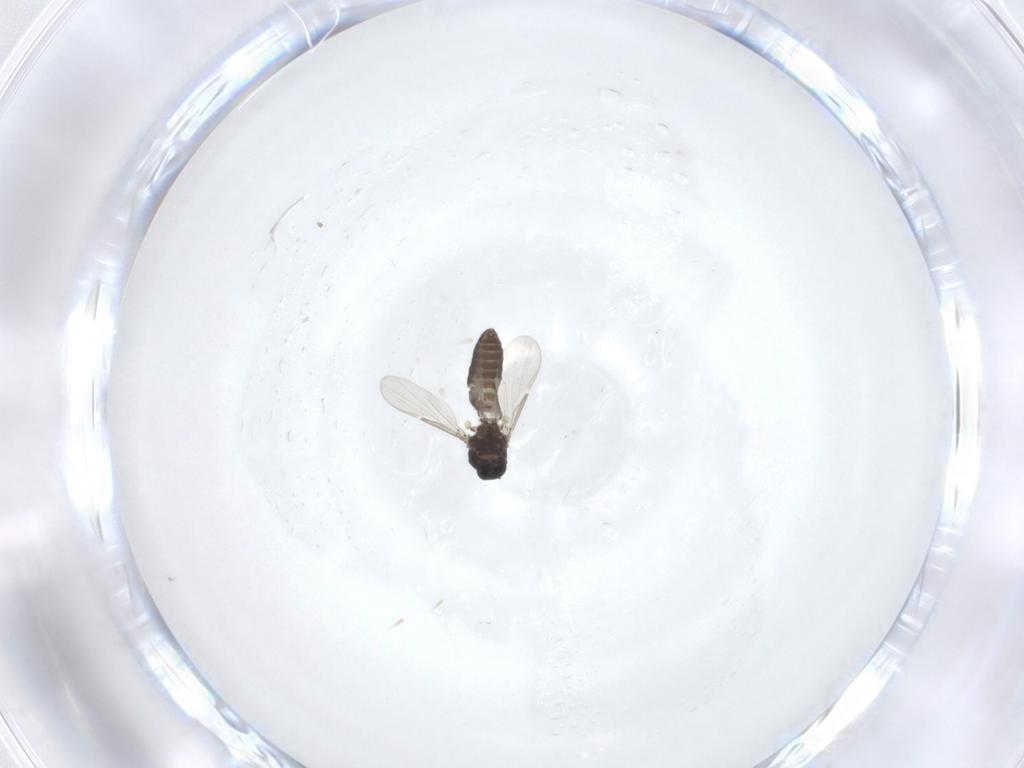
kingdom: Animalia
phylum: Arthropoda
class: Insecta
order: Diptera
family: Ceratopogonidae
